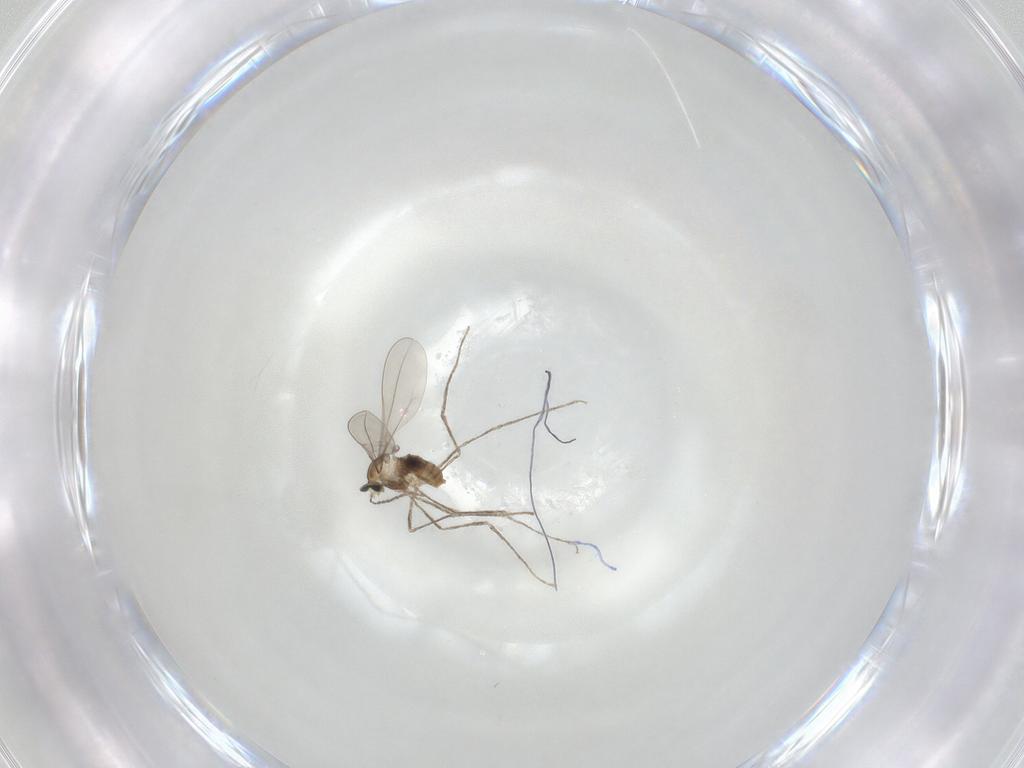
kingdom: Animalia
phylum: Arthropoda
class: Insecta
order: Diptera
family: Cecidomyiidae
